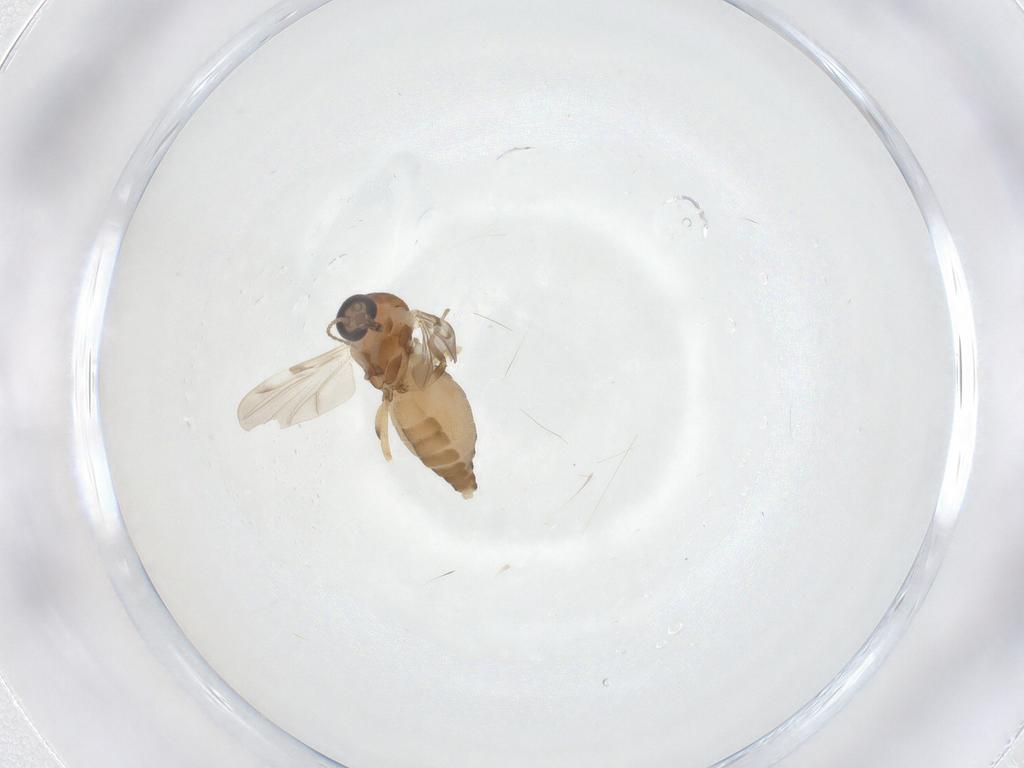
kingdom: Animalia
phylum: Arthropoda
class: Insecta
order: Diptera
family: Ceratopogonidae
